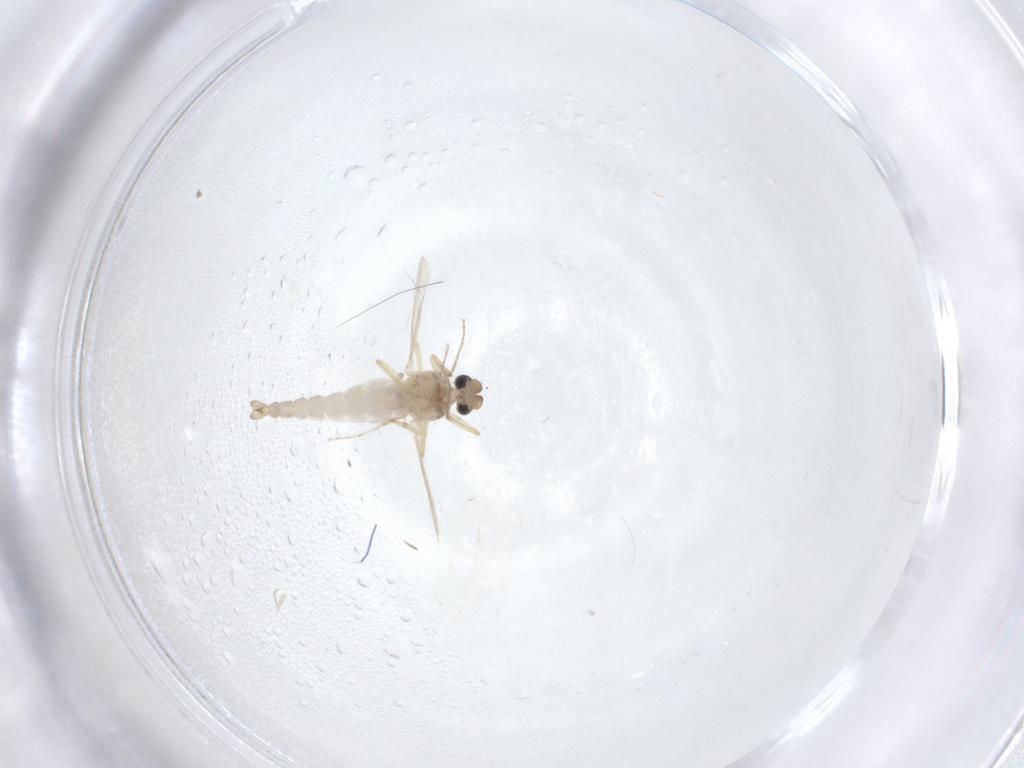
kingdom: Animalia
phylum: Arthropoda
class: Insecta
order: Diptera
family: Ceratopogonidae
